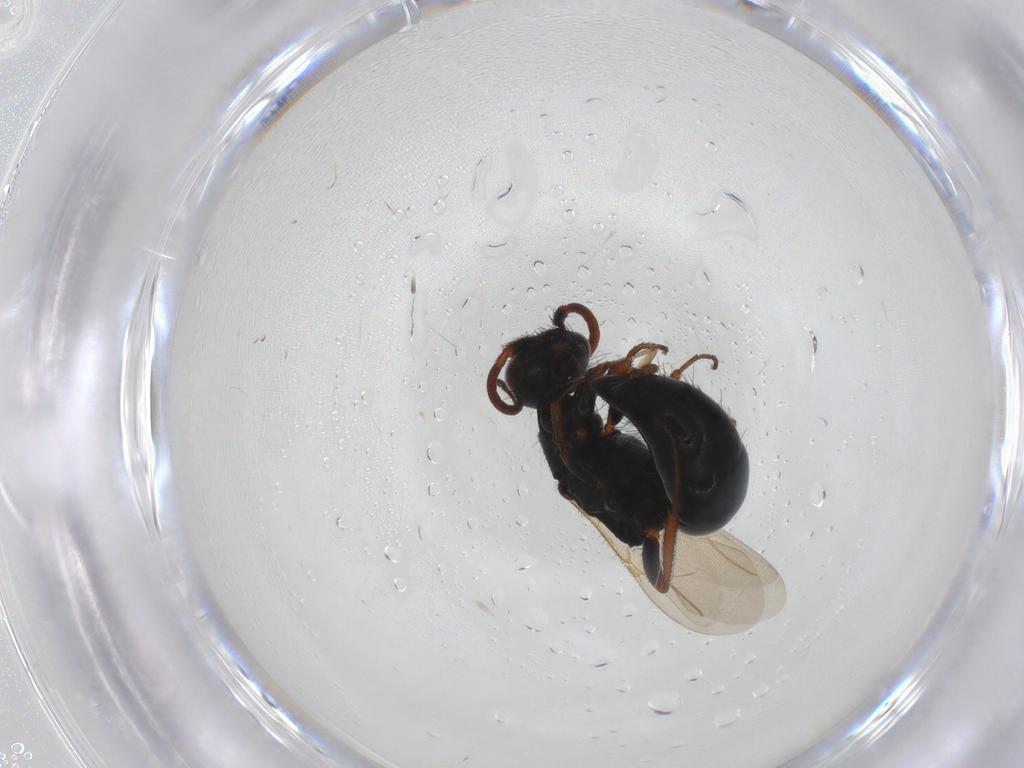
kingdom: Animalia
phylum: Arthropoda
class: Insecta
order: Hymenoptera
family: Bethylidae
